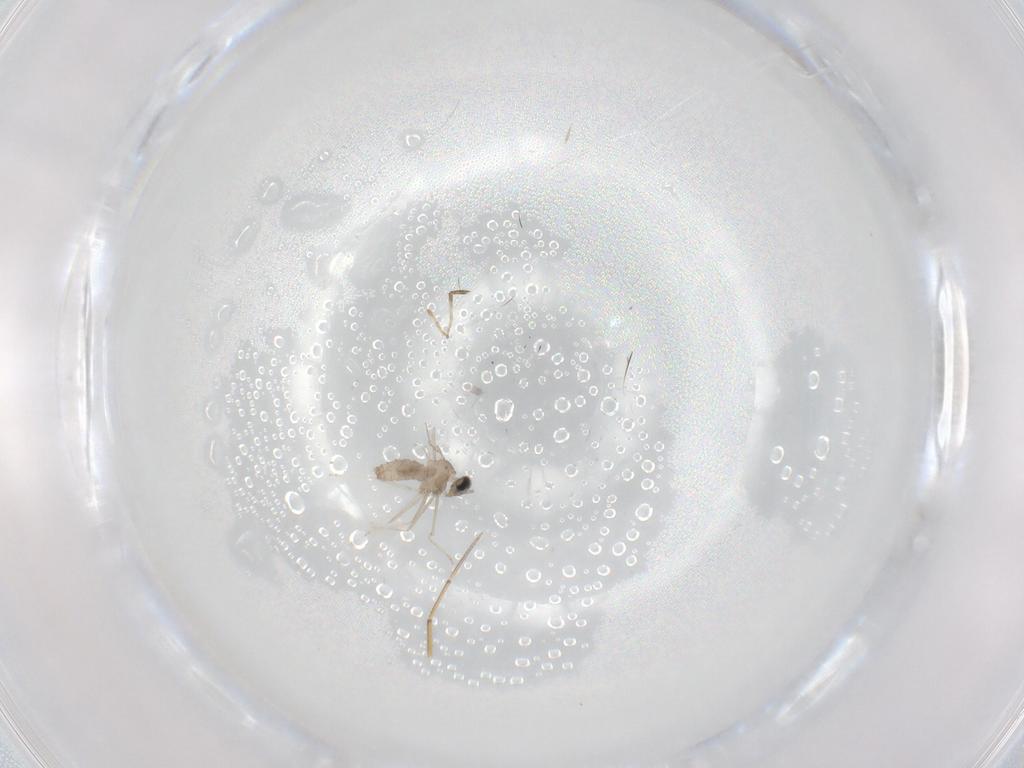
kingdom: Animalia
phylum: Arthropoda
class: Insecta
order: Diptera
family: Cecidomyiidae
